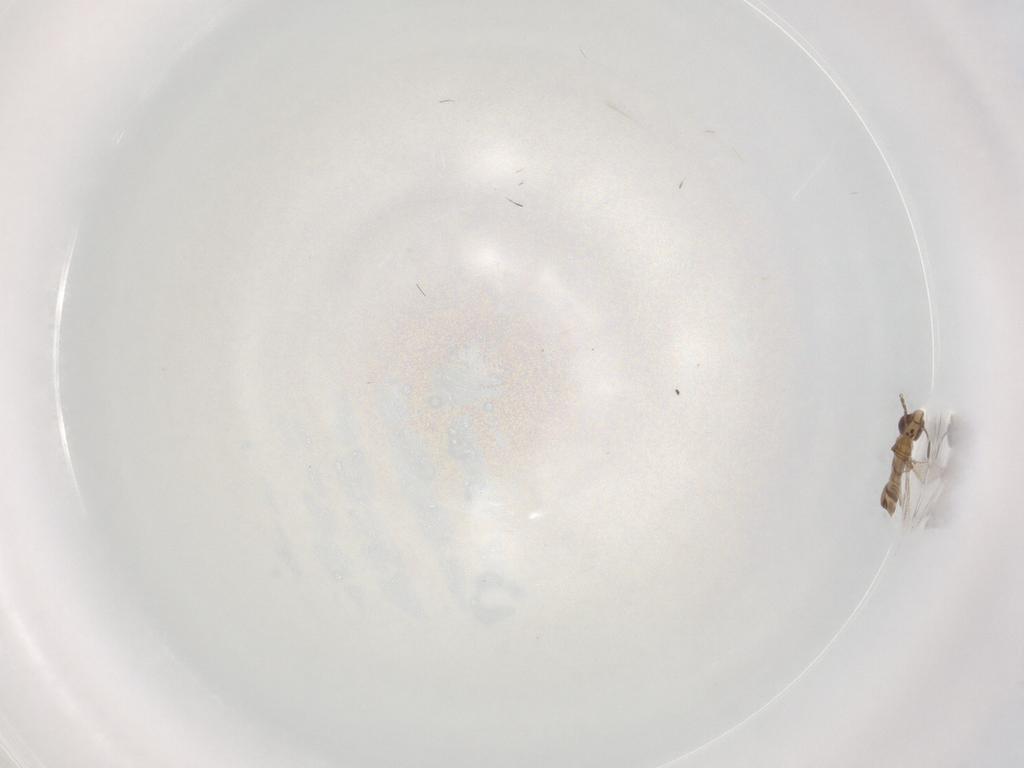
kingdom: Animalia
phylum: Arthropoda
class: Insecta
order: Hymenoptera
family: Mymaridae
